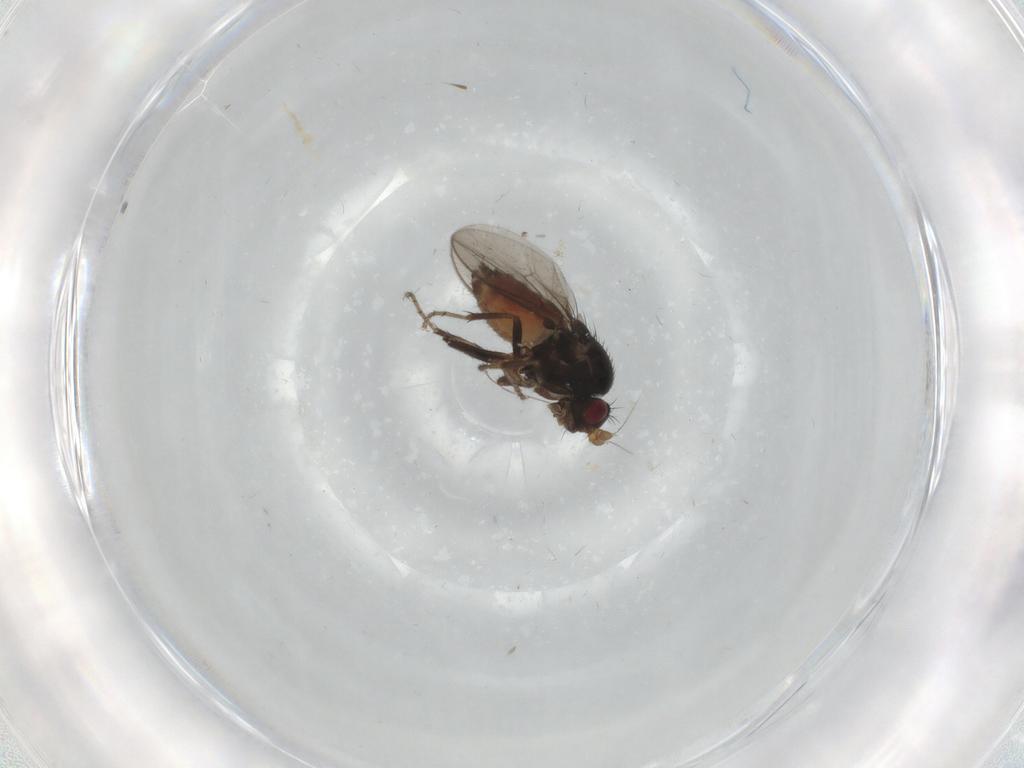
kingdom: Animalia
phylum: Arthropoda
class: Insecta
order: Diptera
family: Sphaeroceridae
